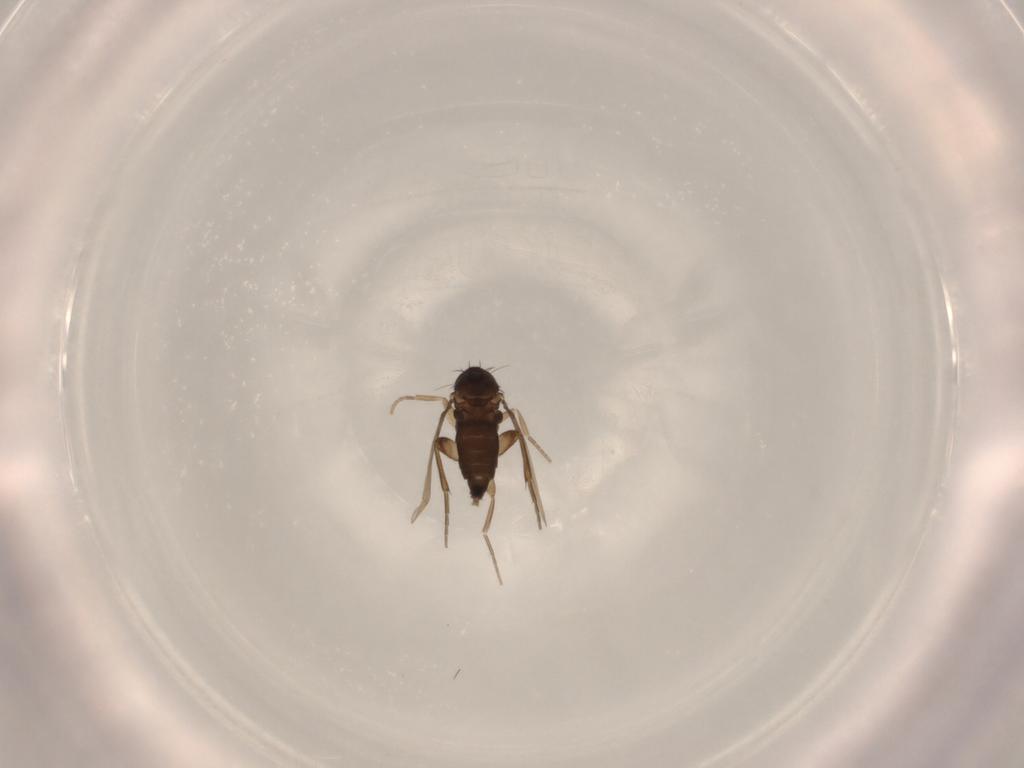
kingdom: Animalia
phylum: Arthropoda
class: Insecta
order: Diptera
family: Phoridae
